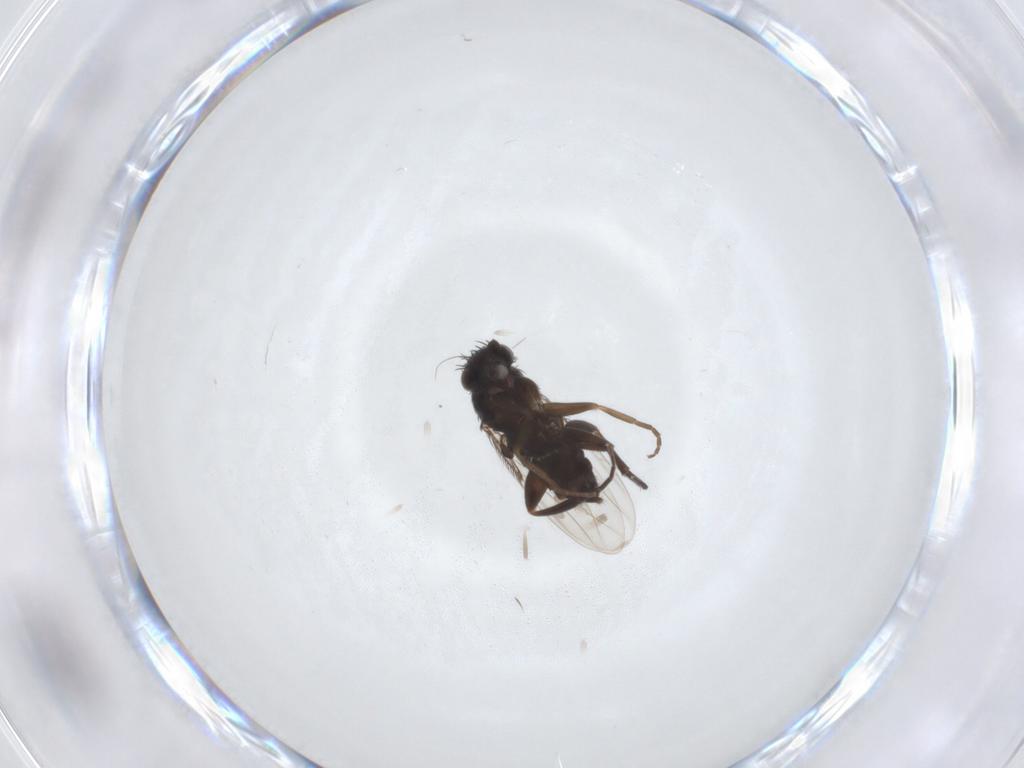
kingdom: Animalia
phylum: Arthropoda
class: Insecta
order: Diptera
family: Phoridae
